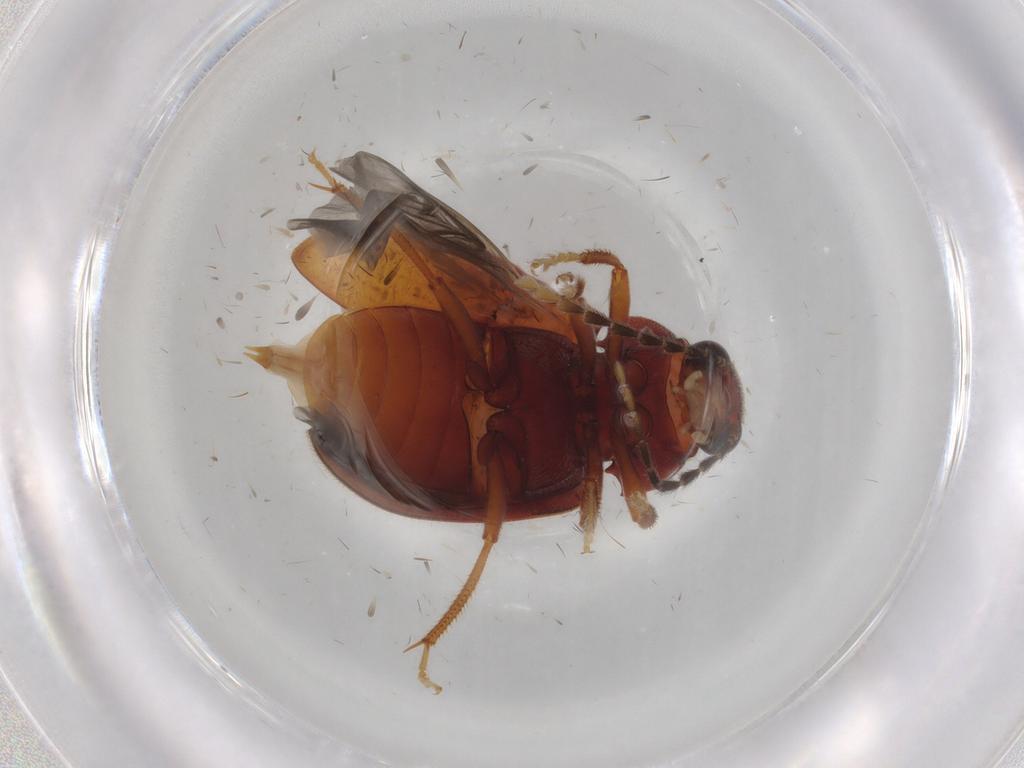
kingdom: Animalia
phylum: Arthropoda
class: Insecta
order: Coleoptera
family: Ptilodactylidae
